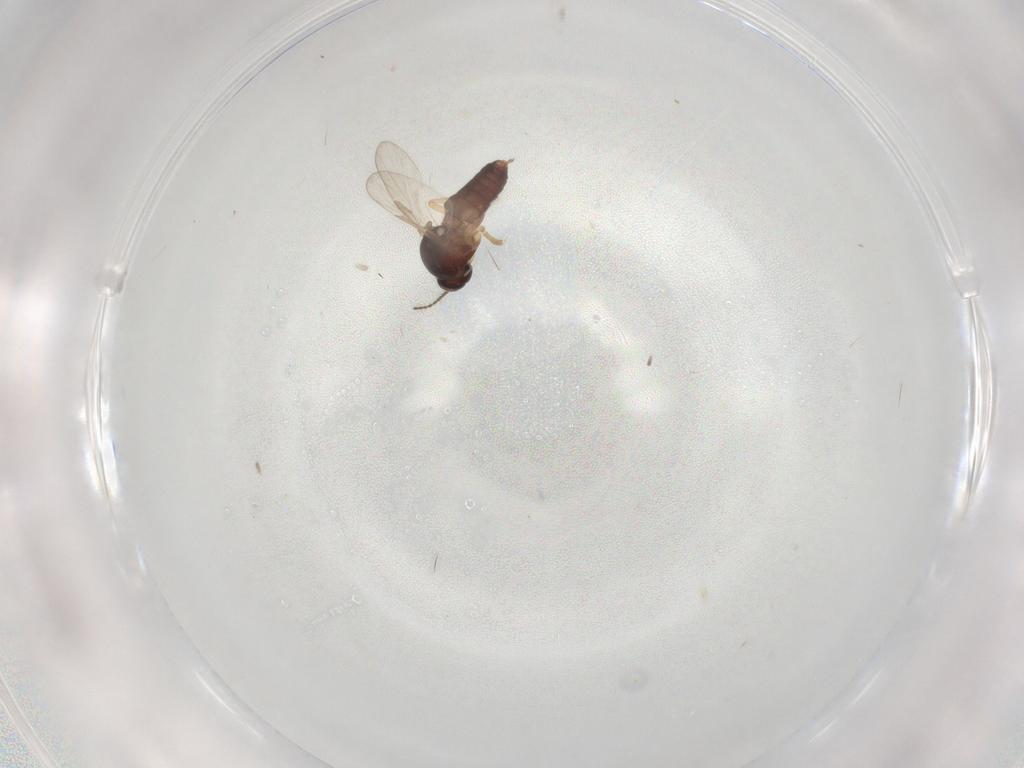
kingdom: Animalia
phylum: Arthropoda
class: Insecta
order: Diptera
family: Ceratopogonidae
